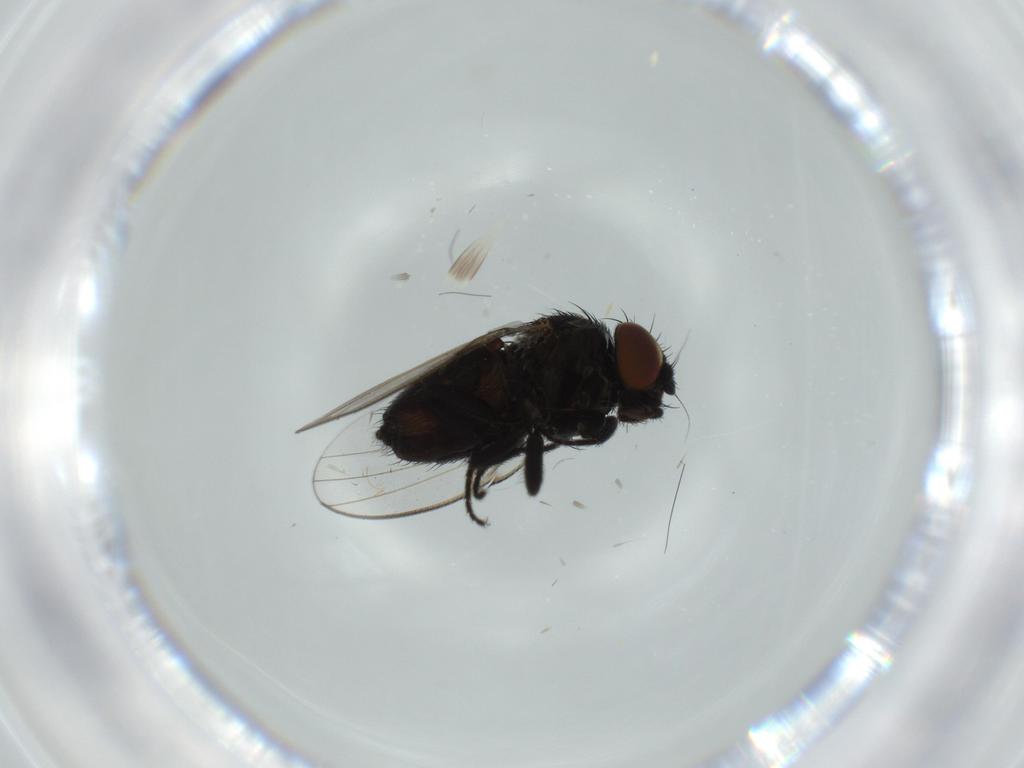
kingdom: Animalia
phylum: Arthropoda
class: Insecta
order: Diptera
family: Milichiidae
